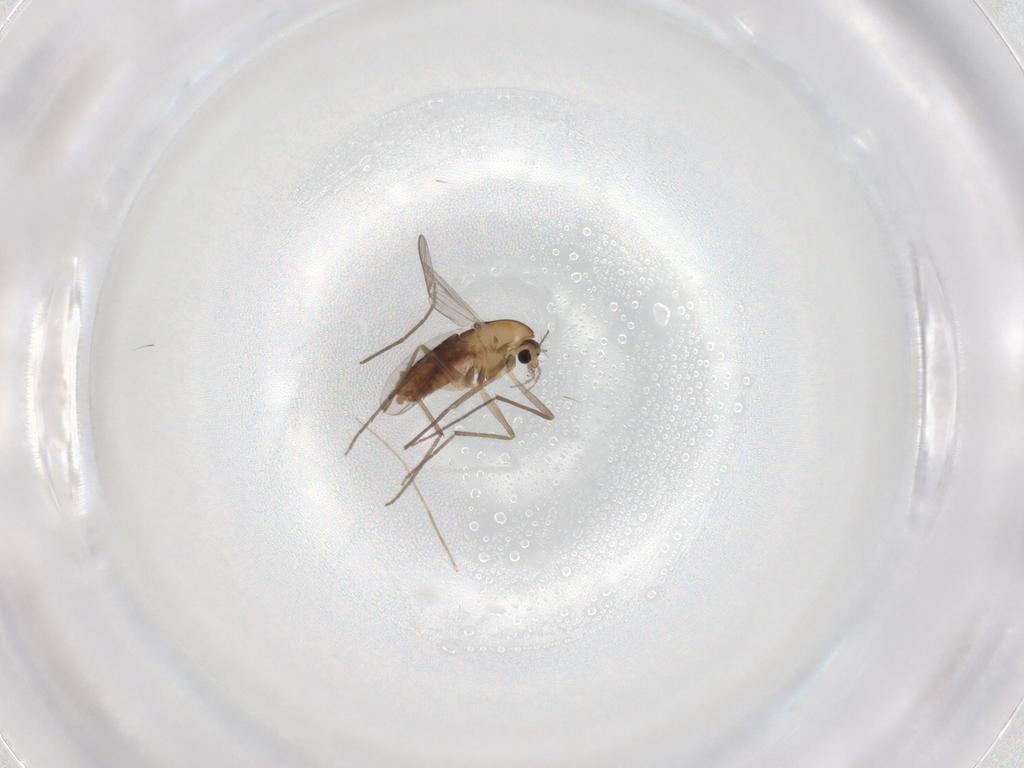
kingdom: Animalia
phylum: Arthropoda
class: Insecta
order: Diptera
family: Chironomidae
